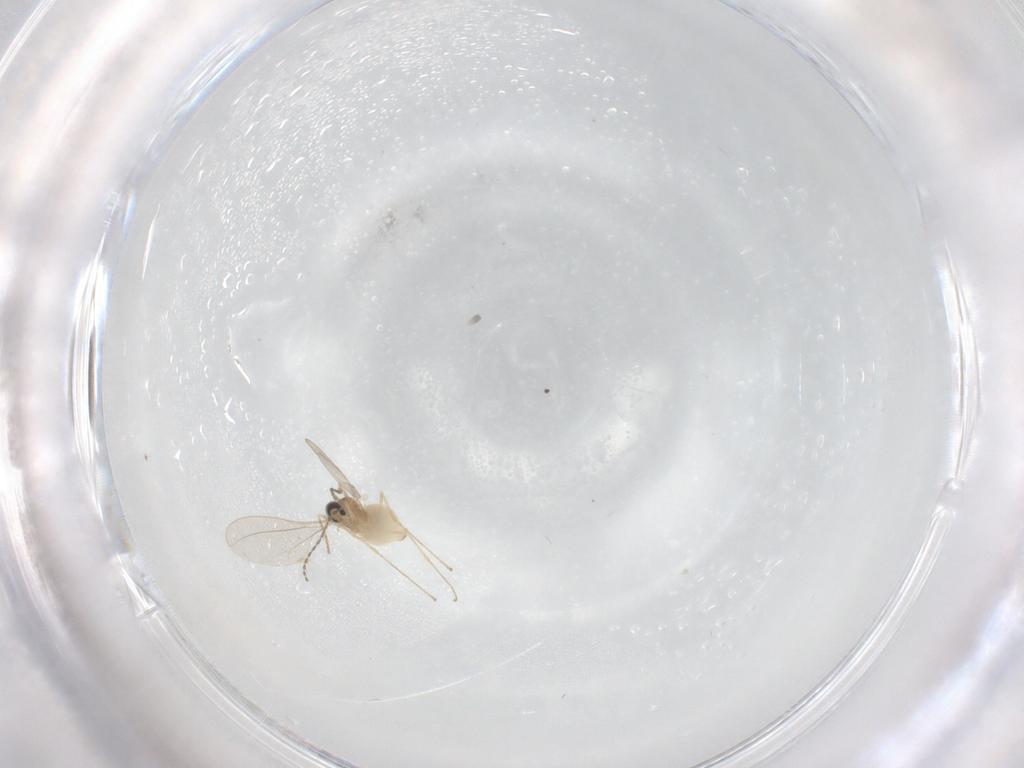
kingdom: Animalia
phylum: Arthropoda
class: Insecta
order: Diptera
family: Cecidomyiidae
